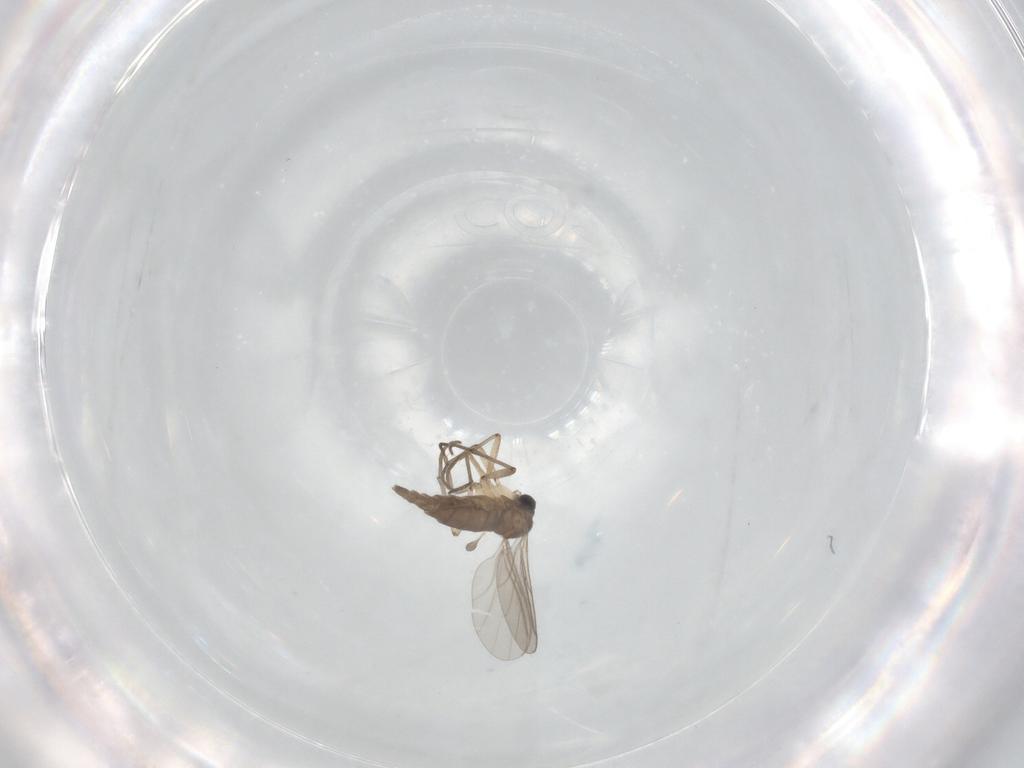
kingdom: Animalia
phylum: Arthropoda
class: Insecta
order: Diptera
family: Sciaridae
